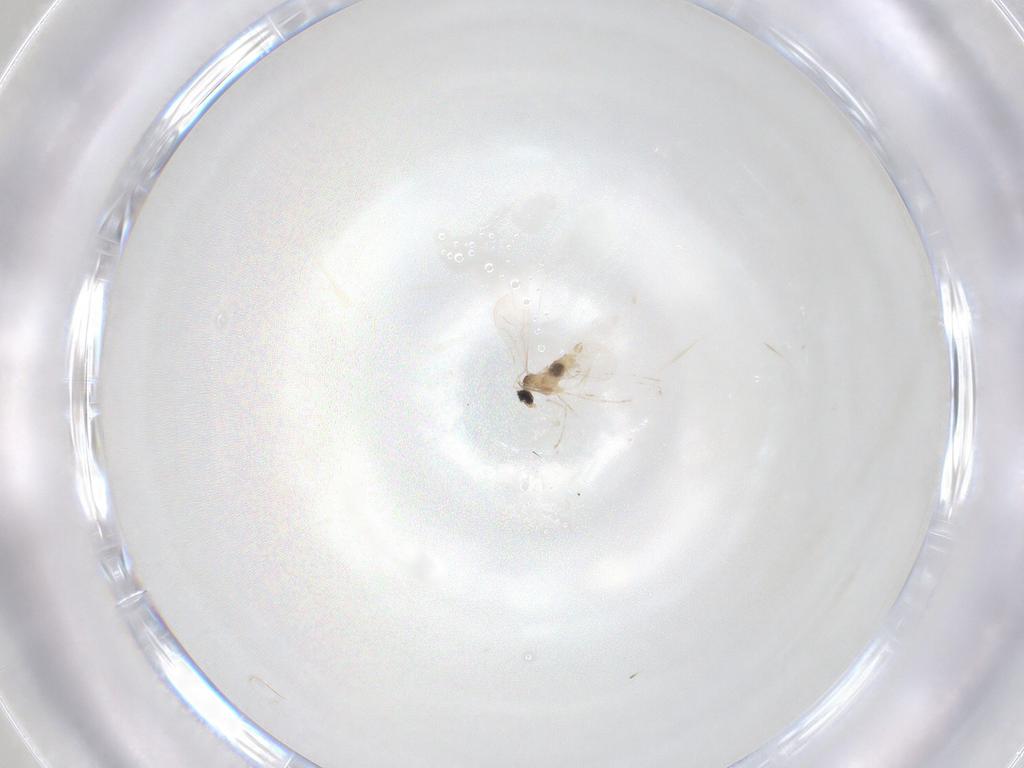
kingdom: Animalia
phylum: Arthropoda
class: Insecta
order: Diptera
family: Cecidomyiidae
